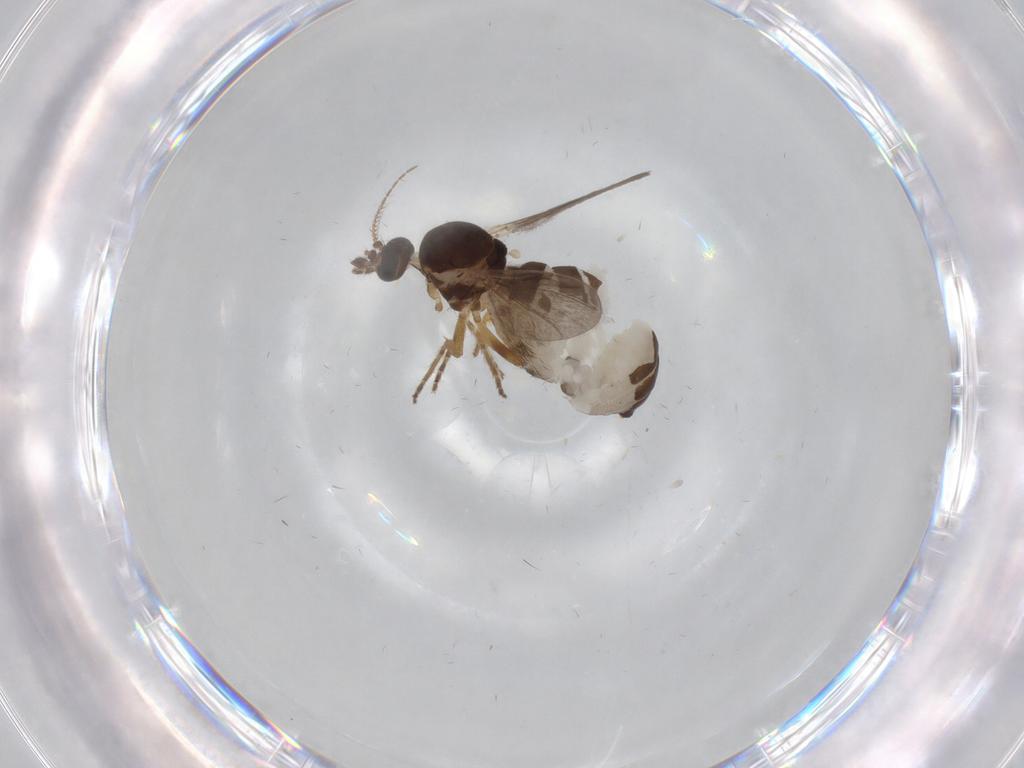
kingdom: Animalia
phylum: Arthropoda
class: Insecta
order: Diptera
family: Ceratopogonidae
